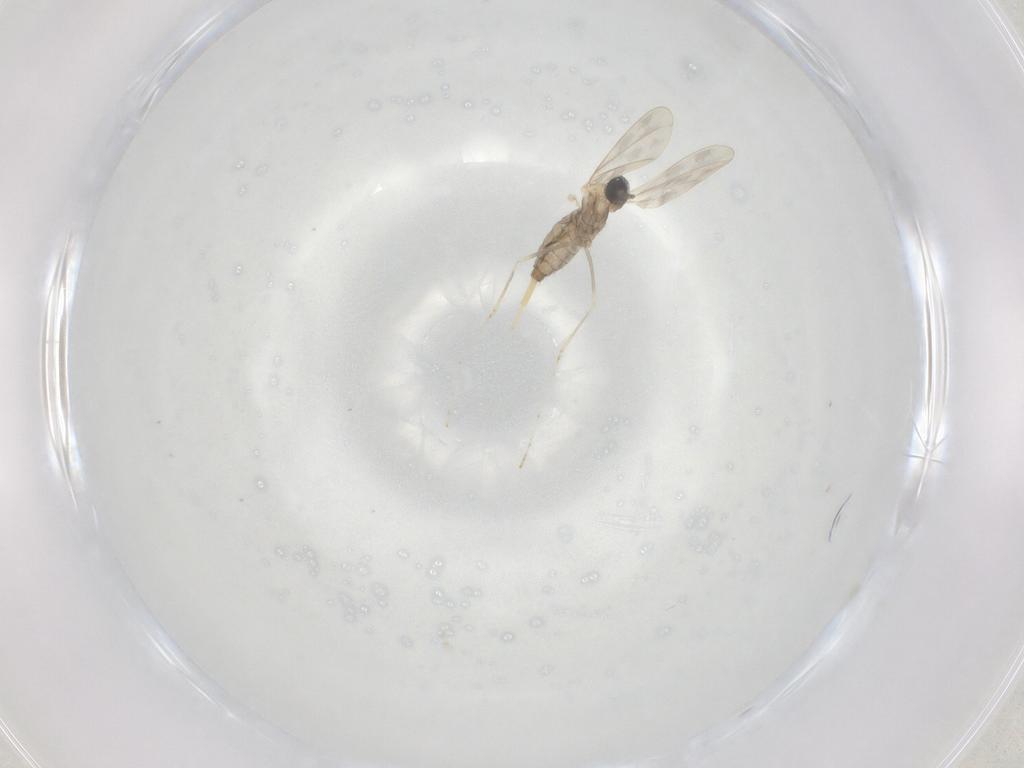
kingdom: Animalia
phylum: Arthropoda
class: Insecta
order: Diptera
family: Cecidomyiidae
